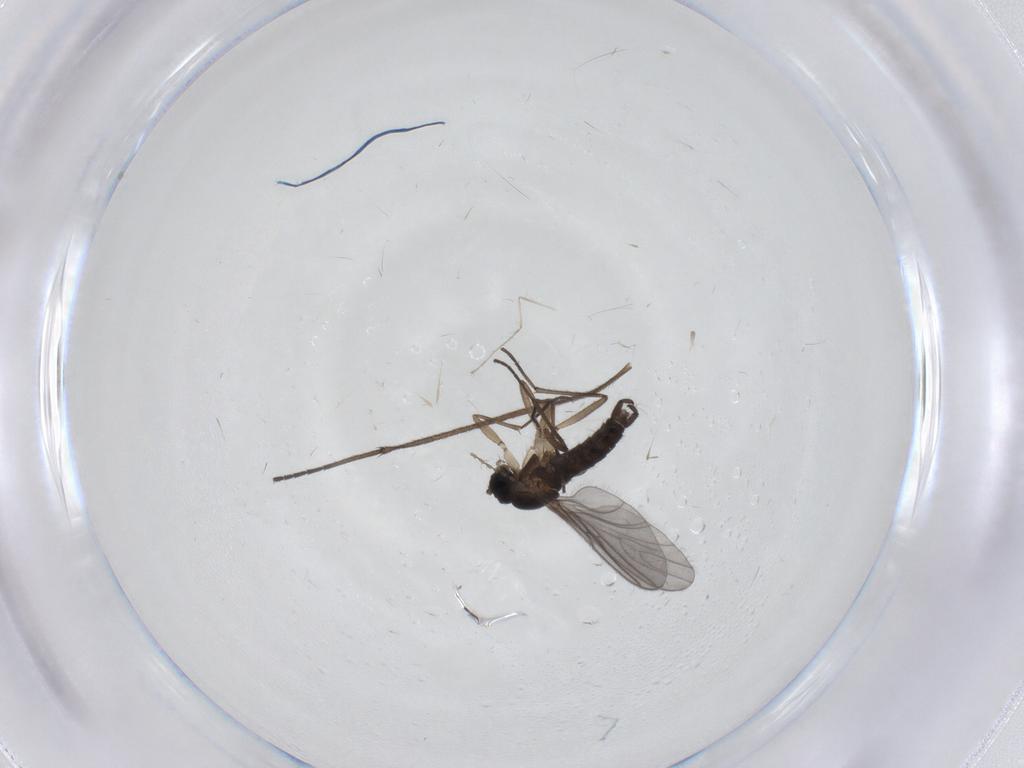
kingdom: Animalia
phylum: Arthropoda
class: Insecta
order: Diptera
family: Sciaridae
